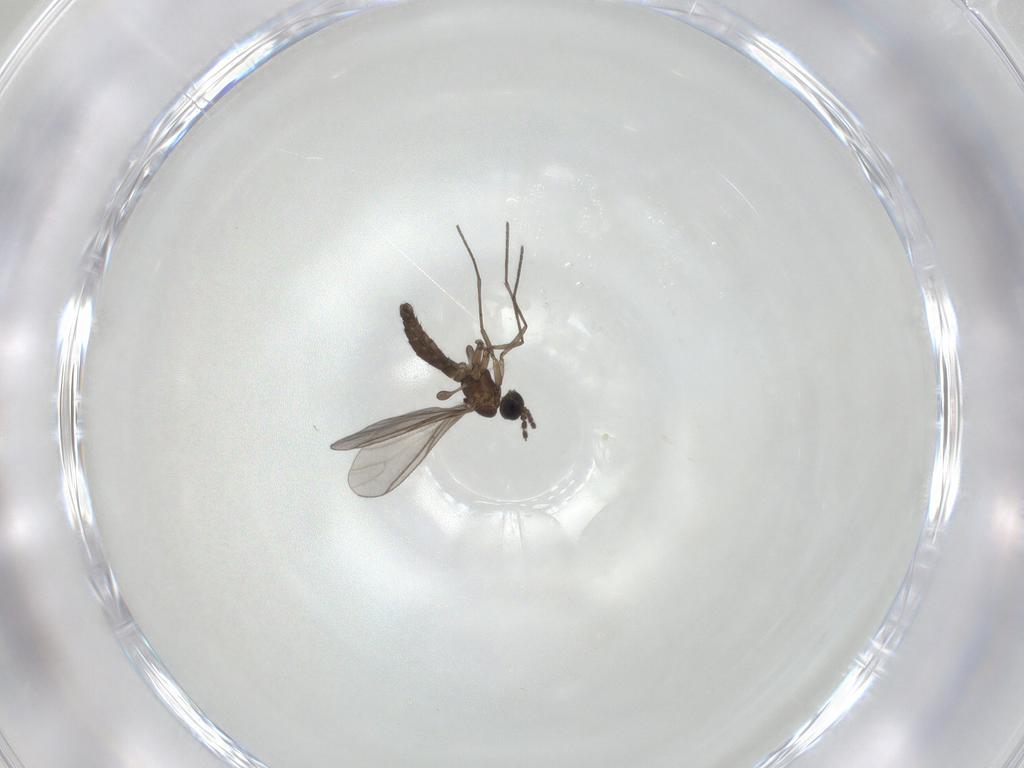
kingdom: Animalia
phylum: Arthropoda
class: Insecta
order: Diptera
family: Sciaridae
